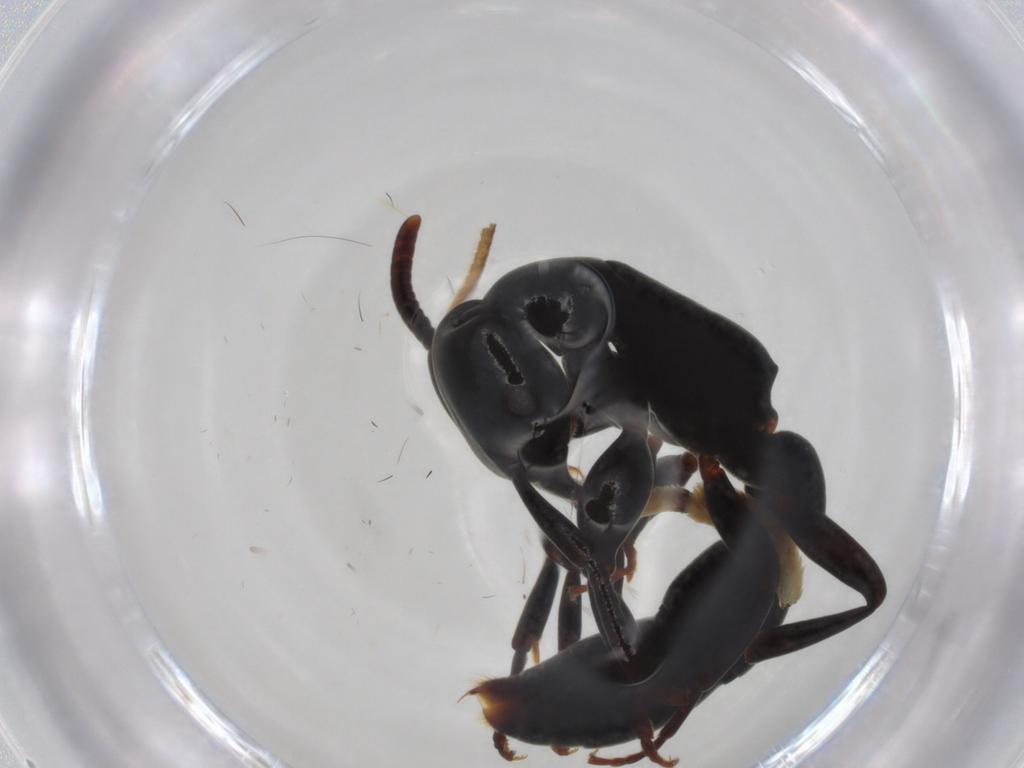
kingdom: Animalia
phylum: Arthropoda
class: Insecta
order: Hymenoptera
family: Formicidae
